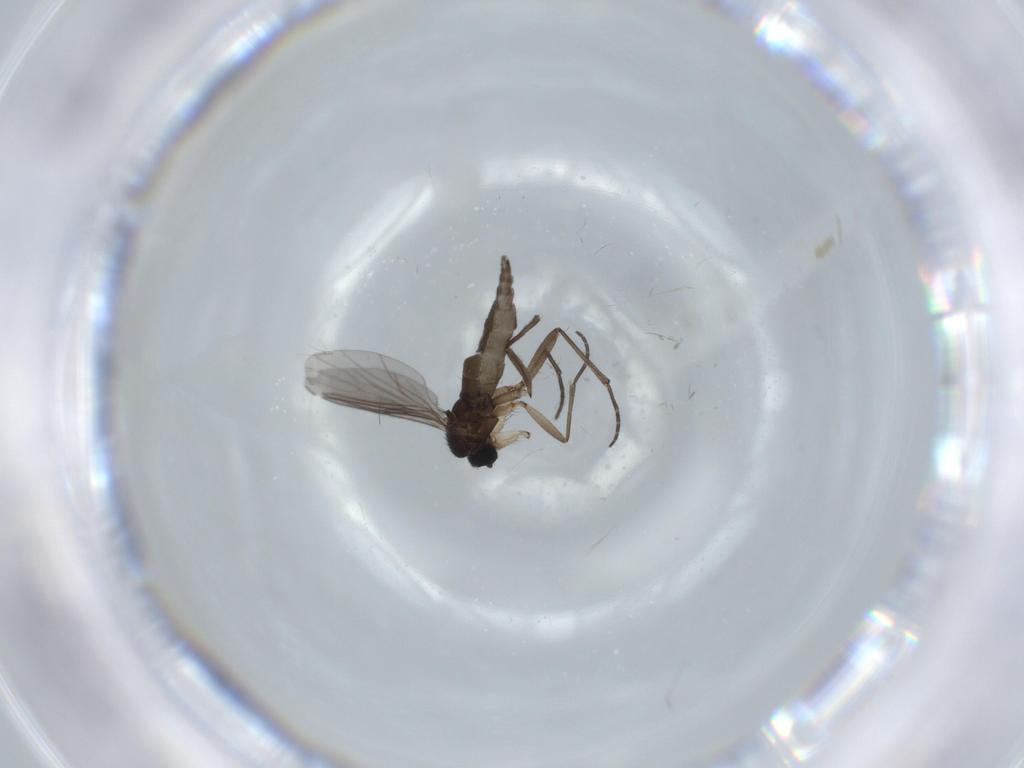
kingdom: Animalia
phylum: Arthropoda
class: Insecta
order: Diptera
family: Sciaridae
